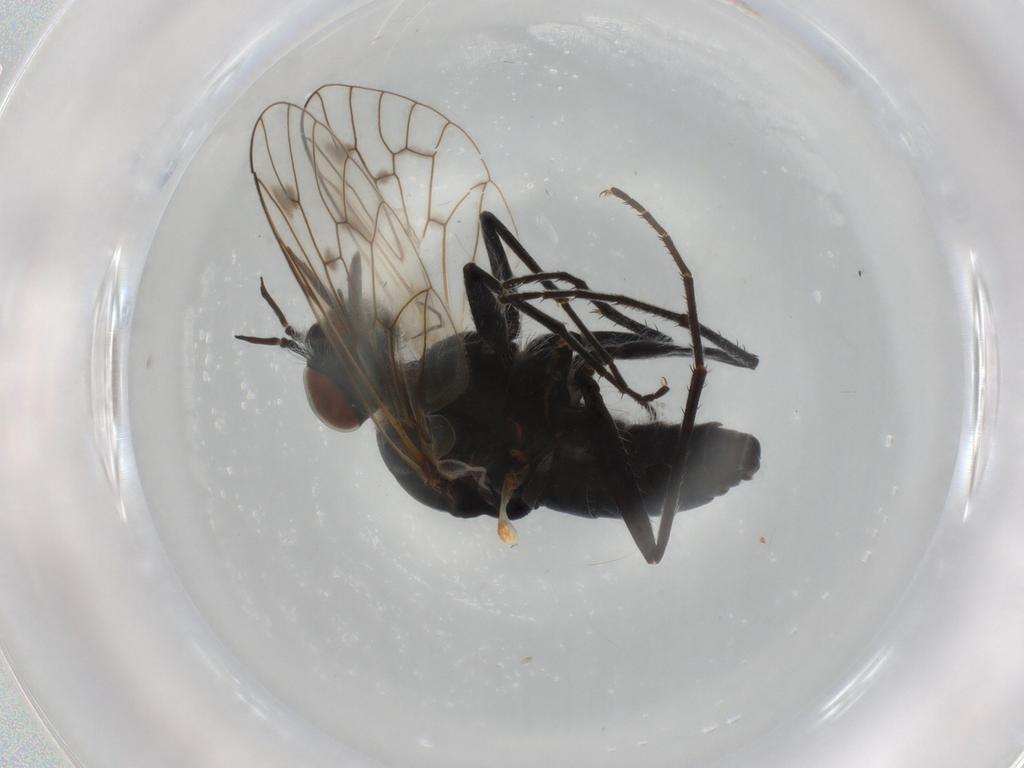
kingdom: Animalia
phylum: Arthropoda
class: Insecta
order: Diptera
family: Bombyliidae
